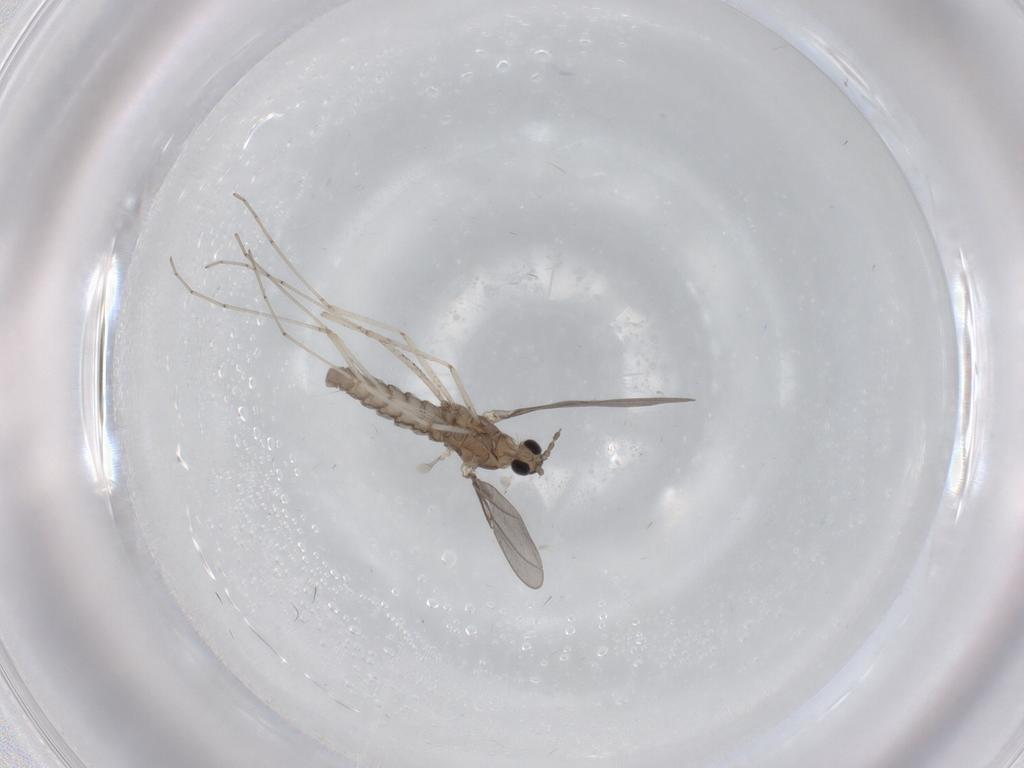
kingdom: Animalia
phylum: Arthropoda
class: Insecta
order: Diptera
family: Cecidomyiidae
